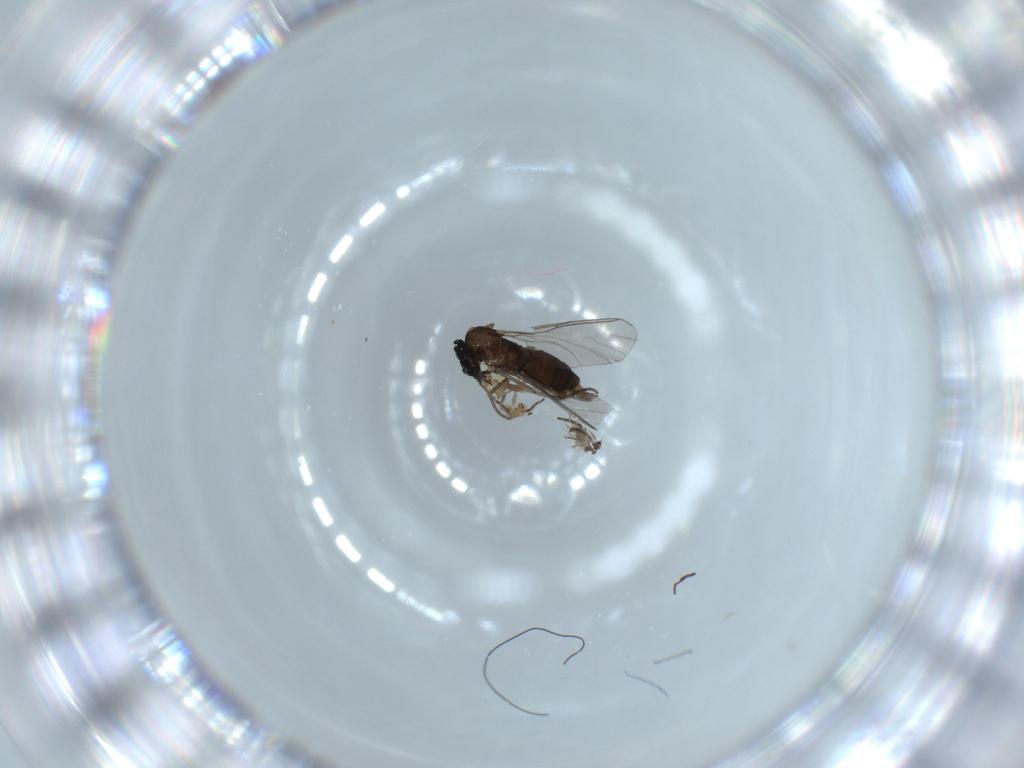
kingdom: Animalia
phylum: Arthropoda
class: Insecta
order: Diptera
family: Sciaridae
